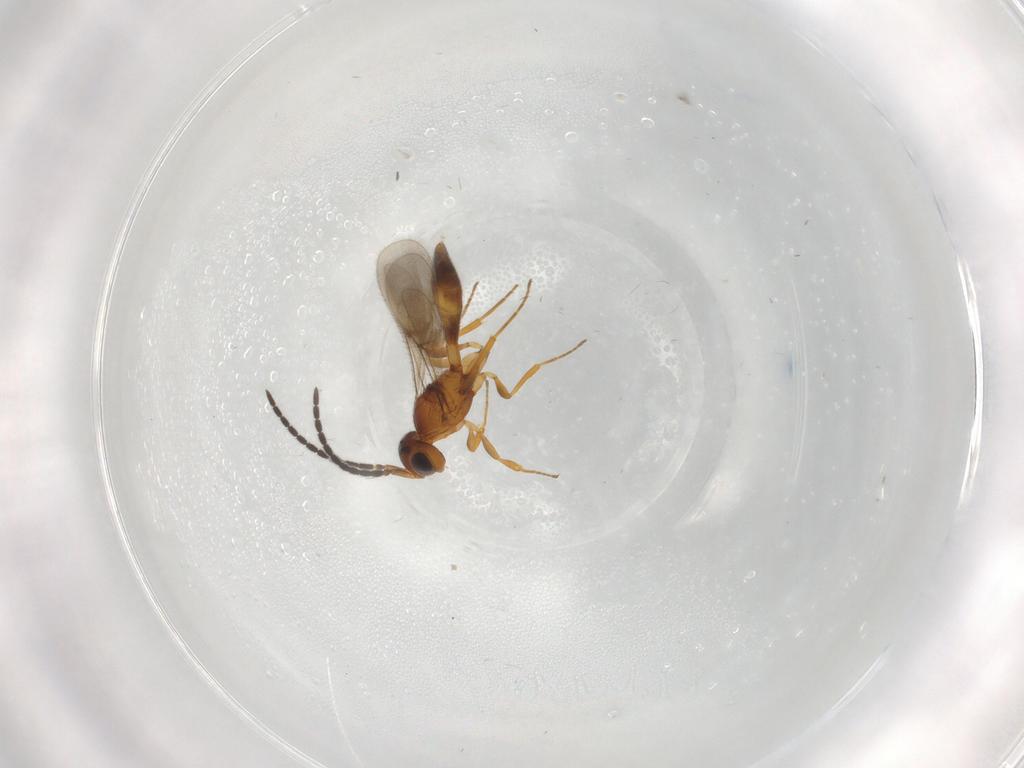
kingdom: Animalia
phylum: Arthropoda
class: Insecta
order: Hymenoptera
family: Scelionidae
